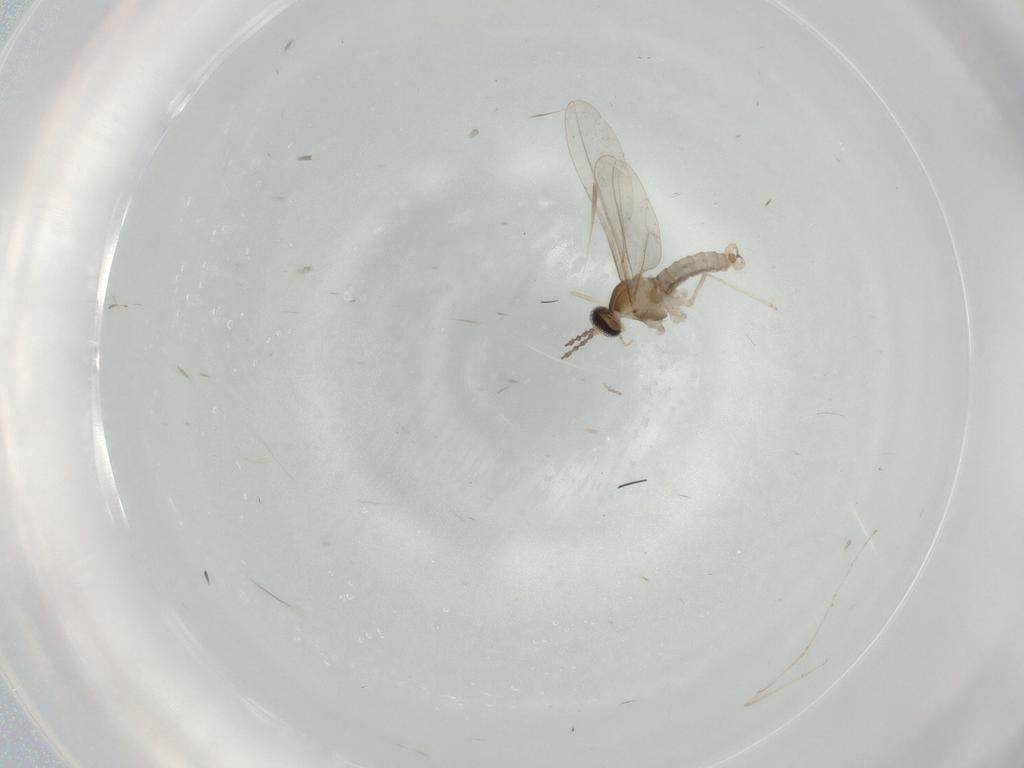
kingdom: Animalia
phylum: Arthropoda
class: Insecta
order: Diptera
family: Cecidomyiidae
